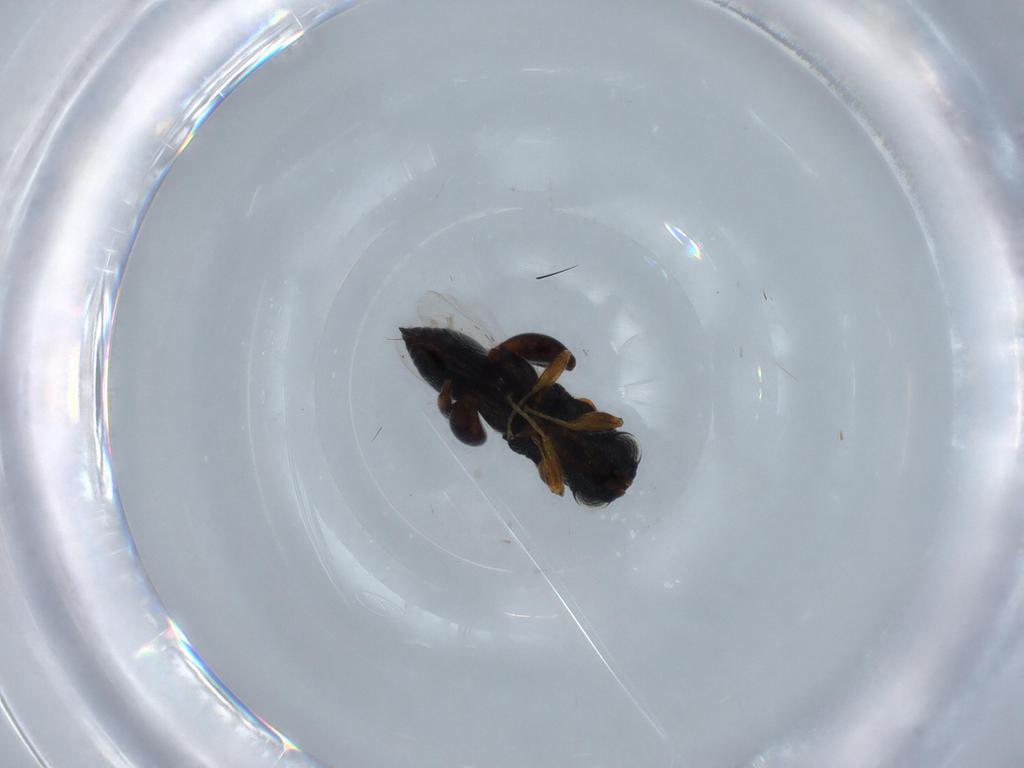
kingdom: Animalia
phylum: Arthropoda
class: Insecta
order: Hymenoptera
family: Chalcididae
